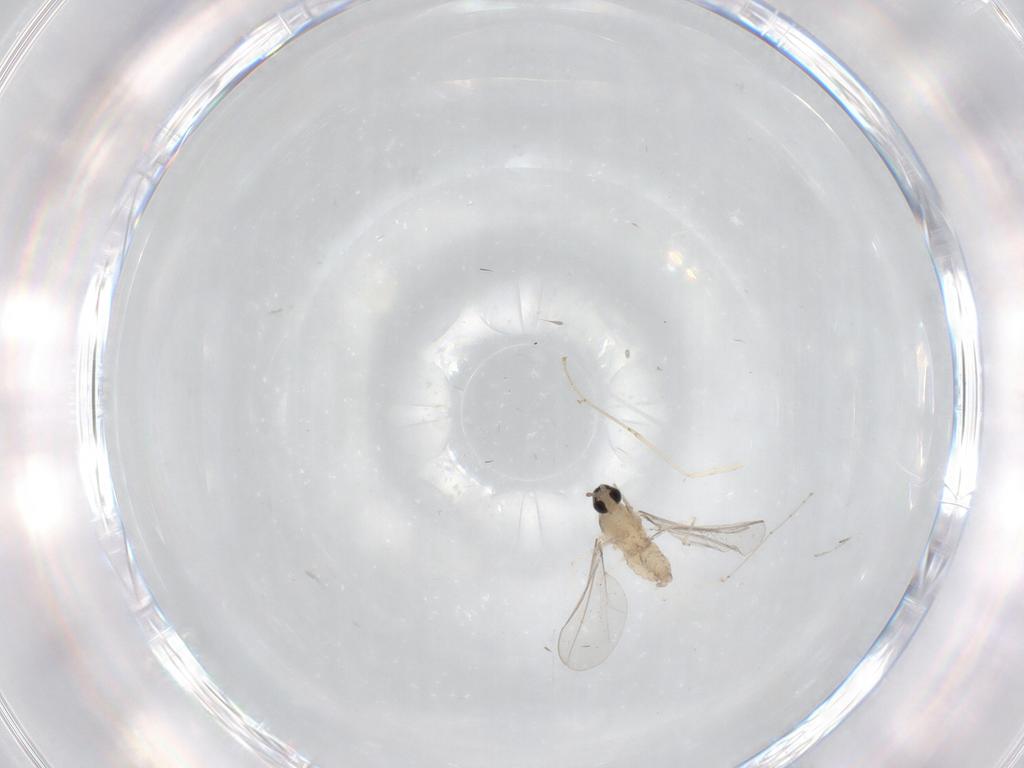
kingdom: Animalia
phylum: Arthropoda
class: Insecta
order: Diptera
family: Cecidomyiidae
